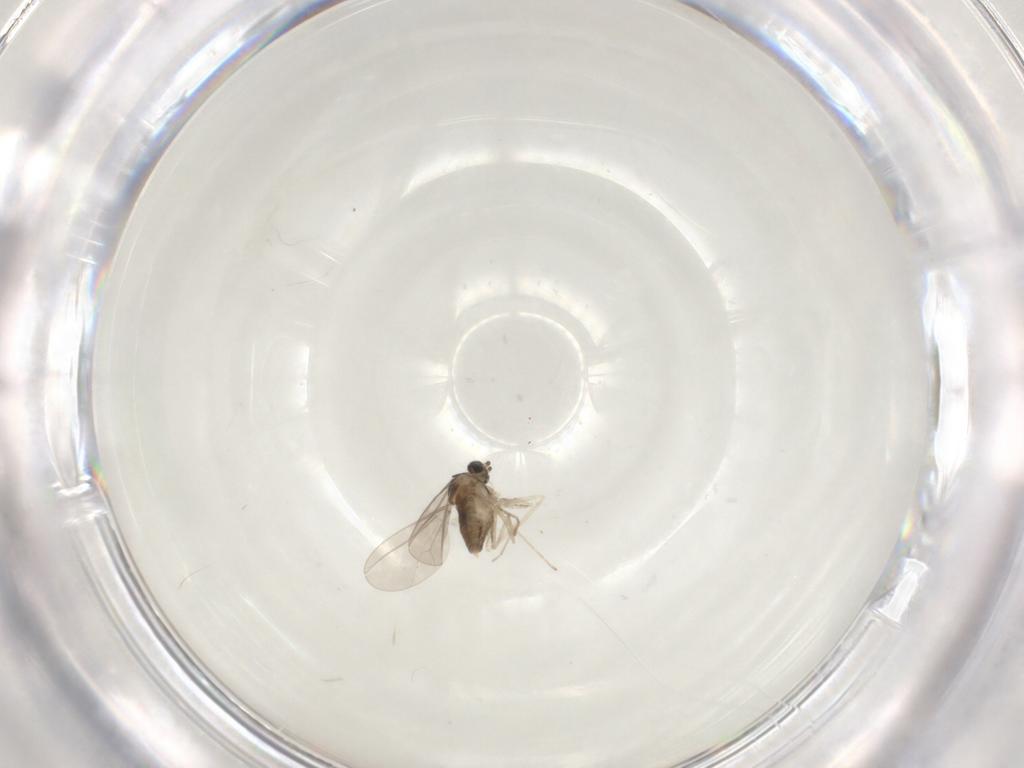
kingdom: Animalia
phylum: Arthropoda
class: Insecta
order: Diptera
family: Cecidomyiidae
